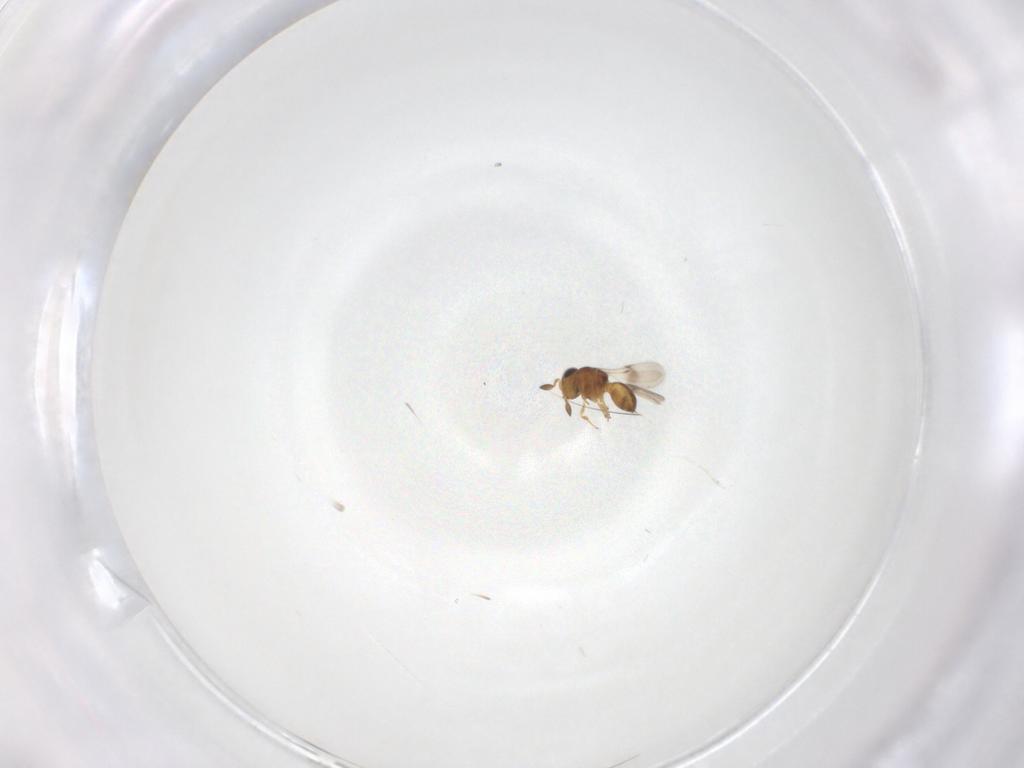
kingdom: Animalia
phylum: Arthropoda
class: Insecta
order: Hymenoptera
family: Scelionidae
